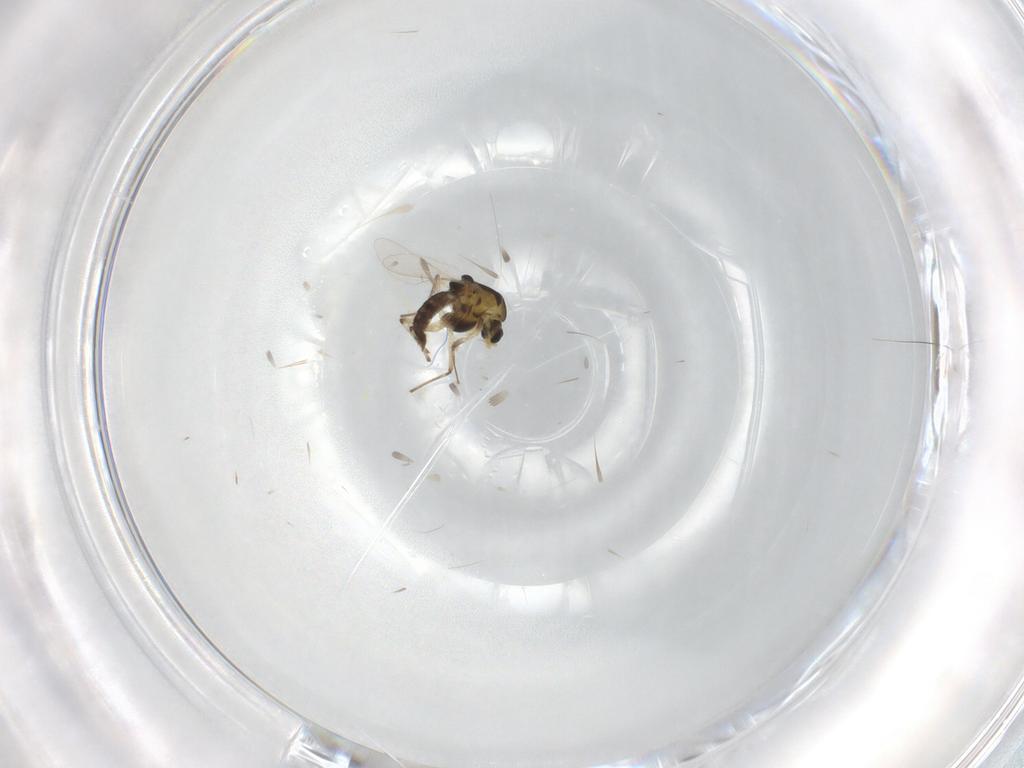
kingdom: Animalia
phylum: Arthropoda
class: Insecta
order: Diptera
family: Chironomidae
